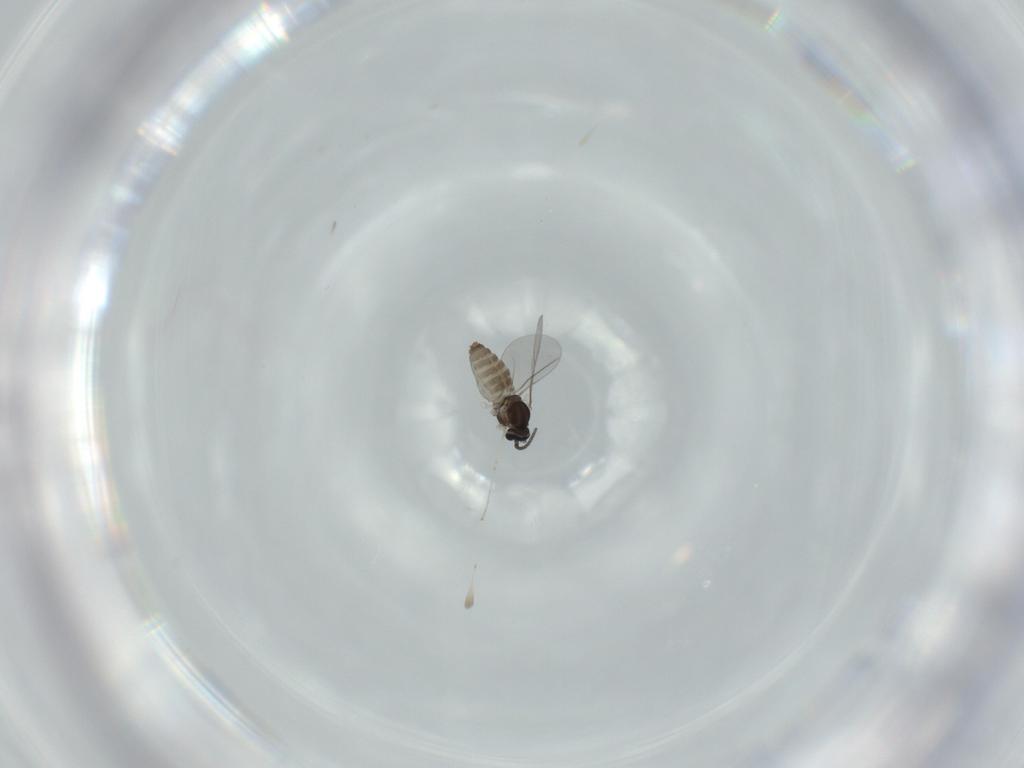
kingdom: Animalia
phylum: Arthropoda
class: Insecta
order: Diptera
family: Cecidomyiidae
